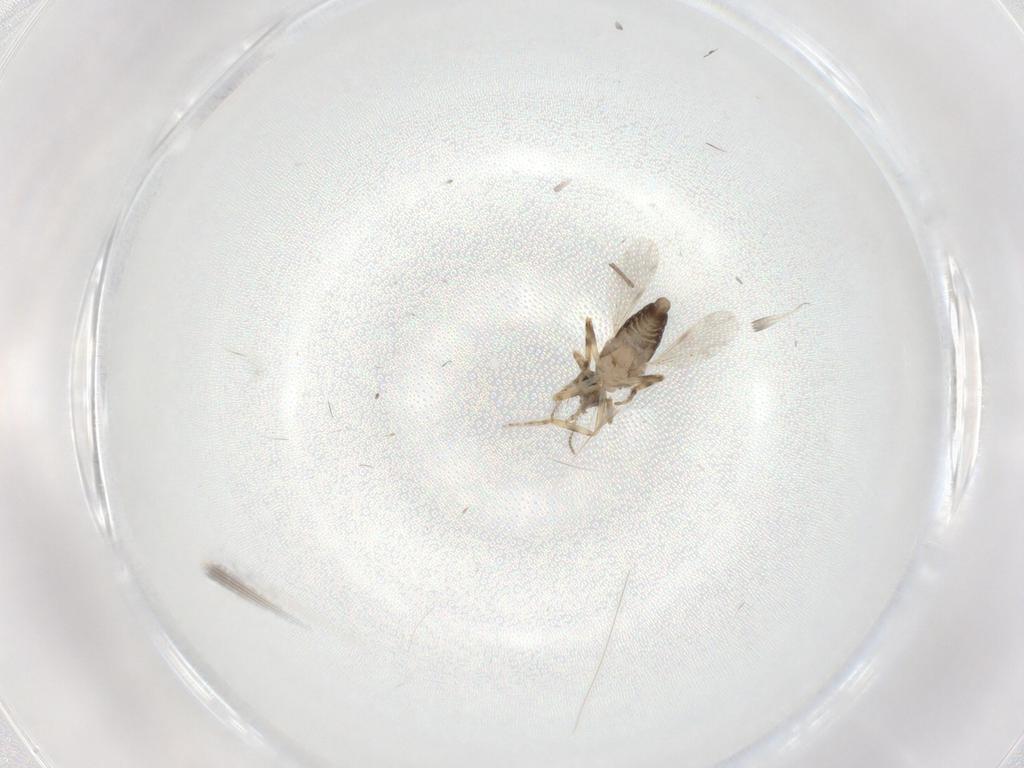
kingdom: Animalia
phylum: Arthropoda
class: Insecta
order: Diptera
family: Ceratopogonidae
